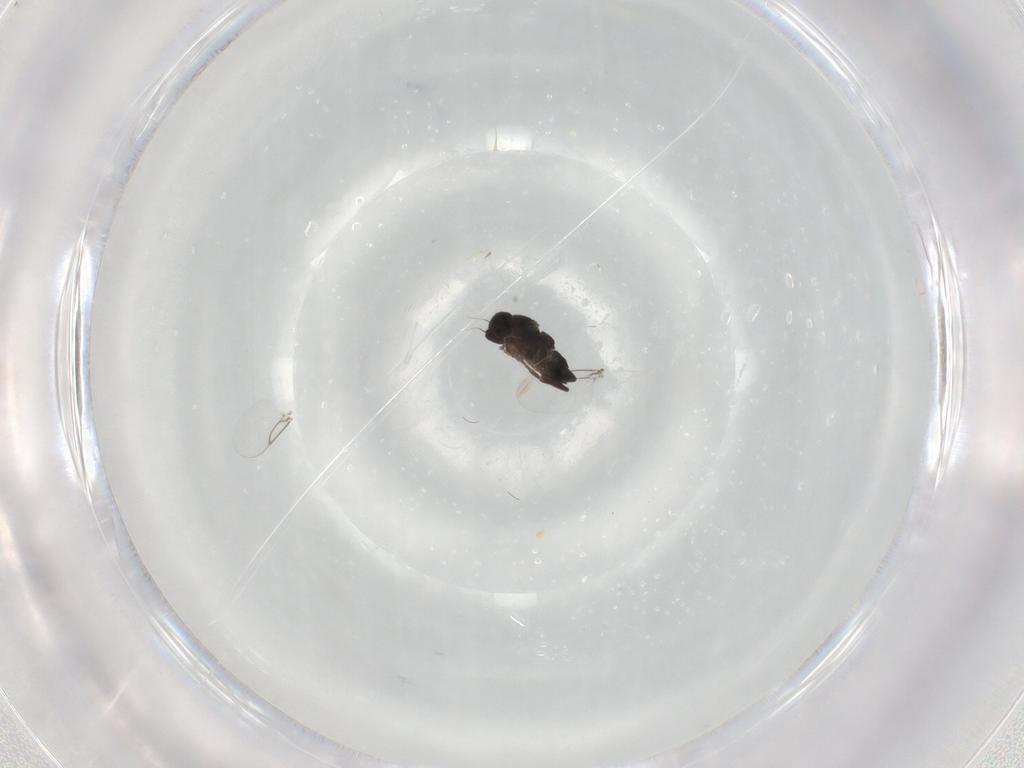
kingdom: Animalia
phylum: Arthropoda
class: Insecta
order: Diptera
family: Phoridae
